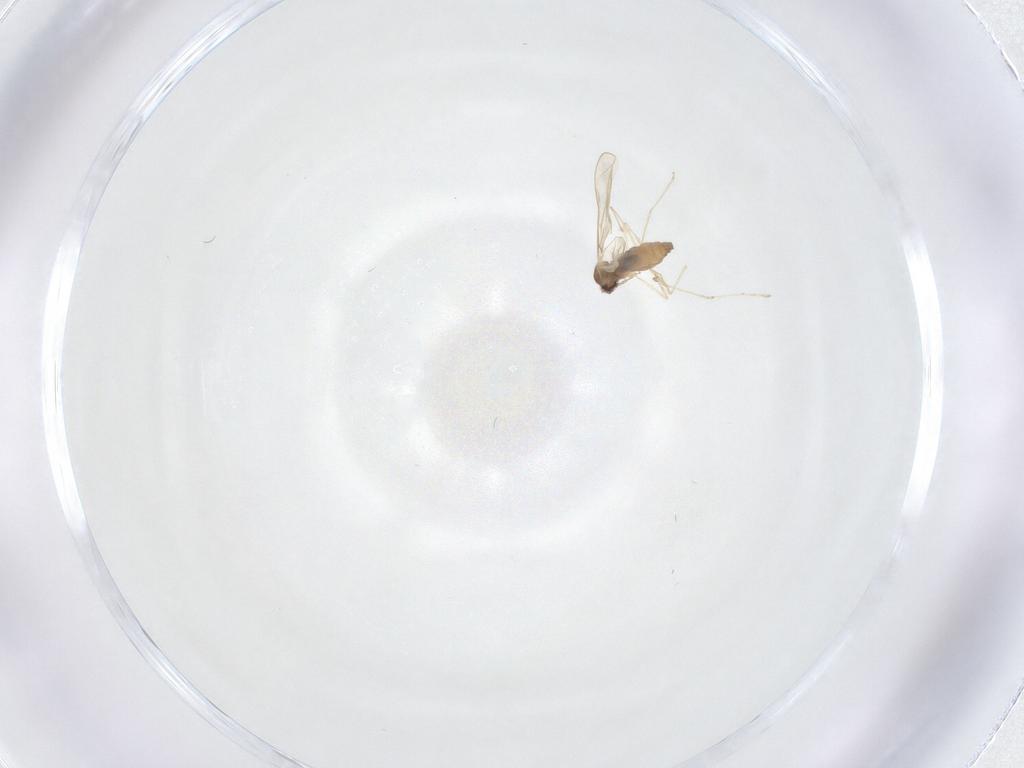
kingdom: Animalia
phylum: Arthropoda
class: Insecta
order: Diptera
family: Cecidomyiidae
